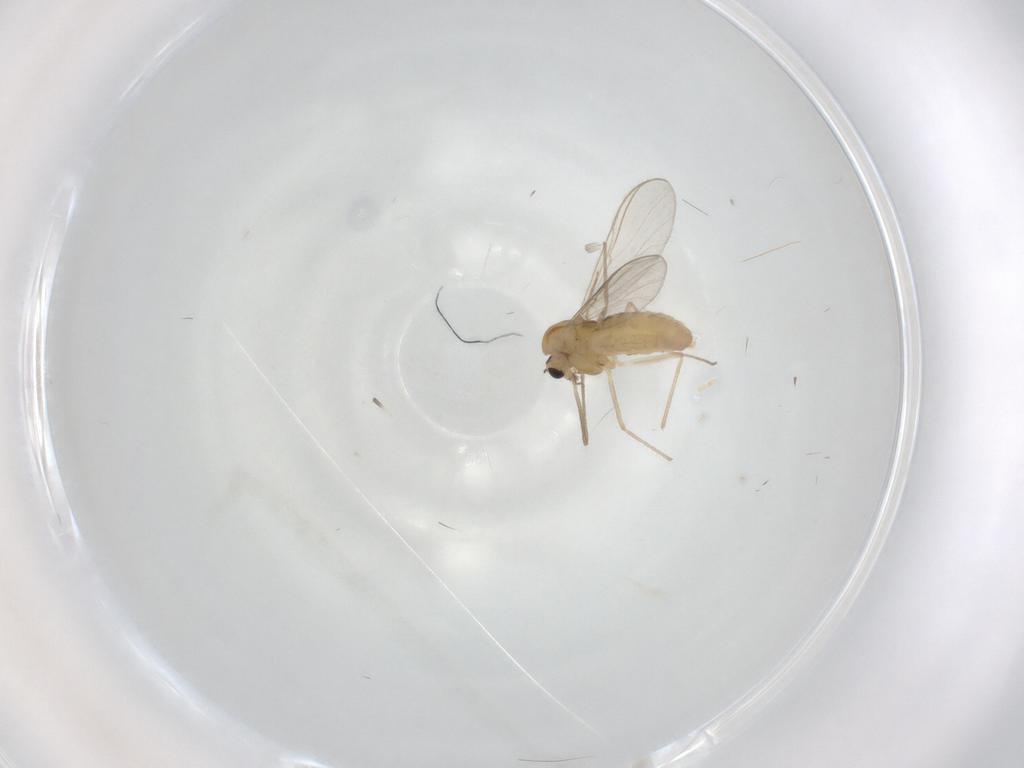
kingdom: Animalia
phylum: Arthropoda
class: Insecta
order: Diptera
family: Chironomidae
